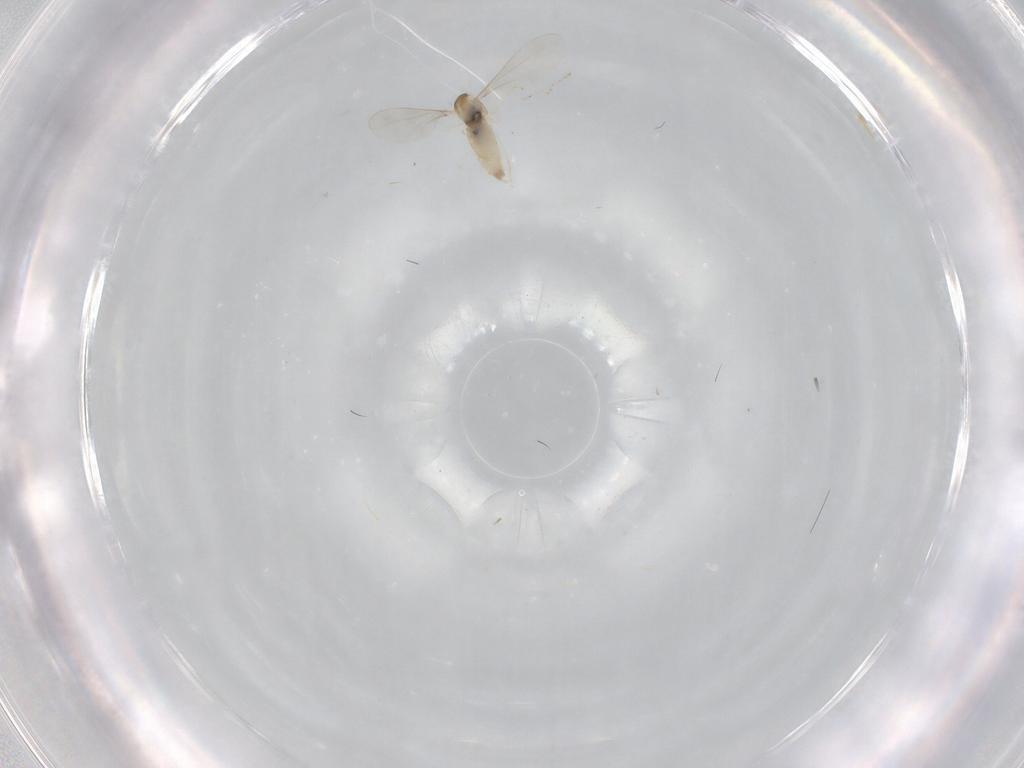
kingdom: Animalia
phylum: Arthropoda
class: Insecta
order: Diptera
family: Cecidomyiidae
